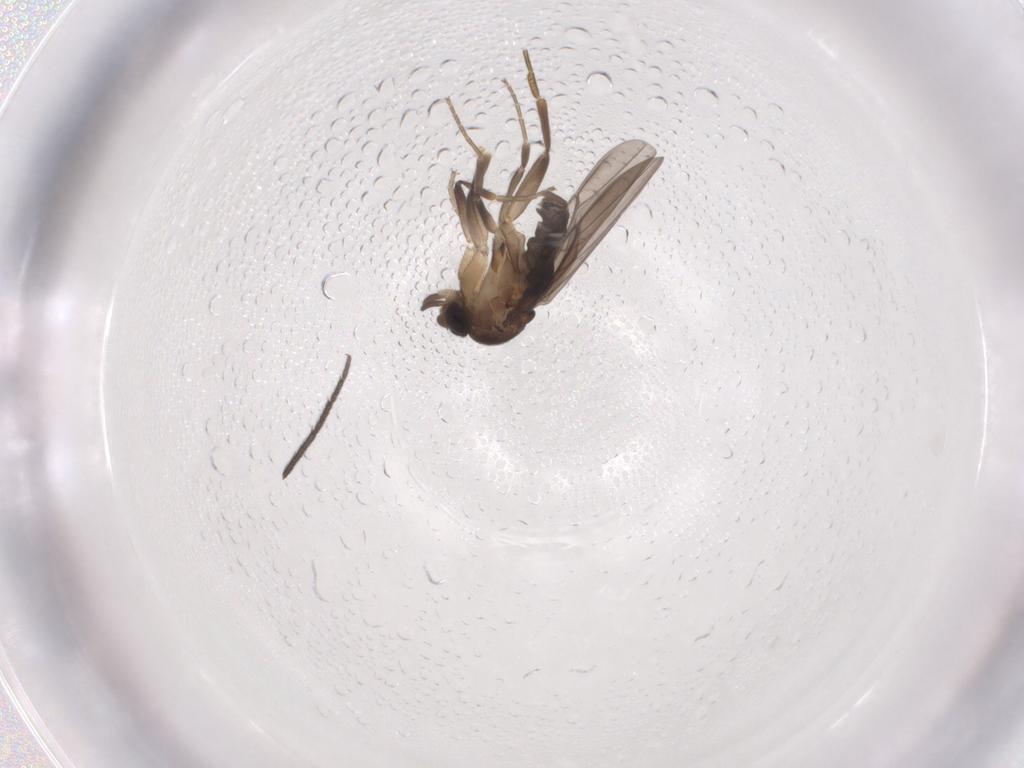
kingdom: Animalia
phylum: Arthropoda
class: Insecta
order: Diptera
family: Phoridae
